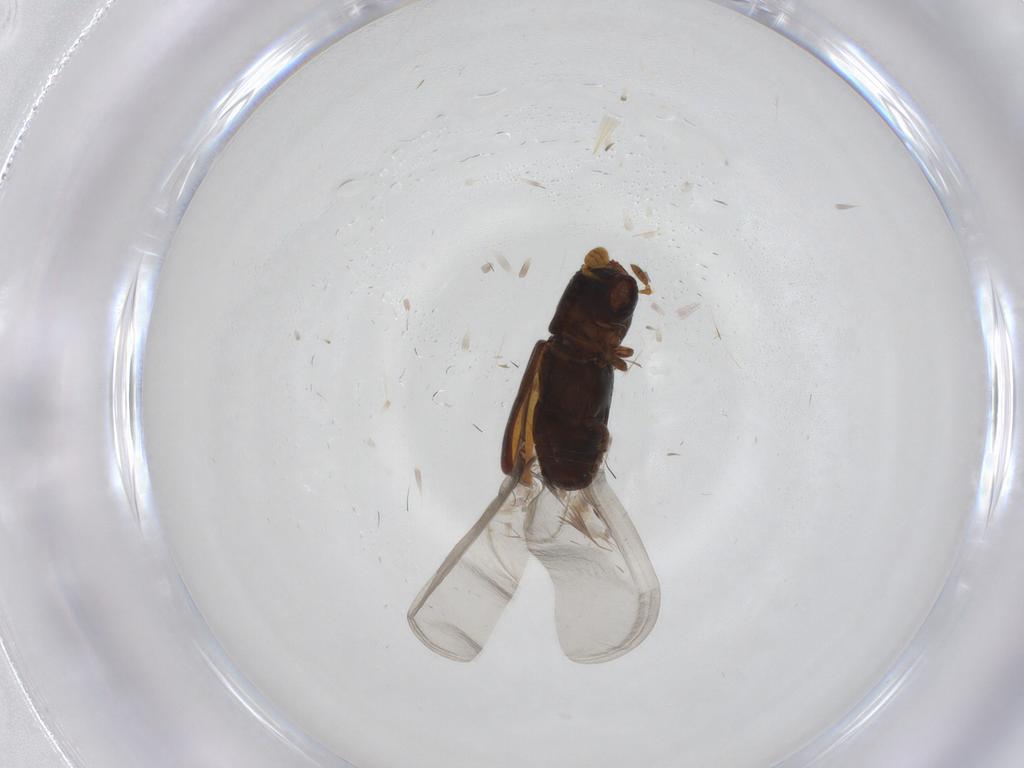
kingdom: Animalia
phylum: Arthropoda
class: Insecta
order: Coleoptera
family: Curculionidae
